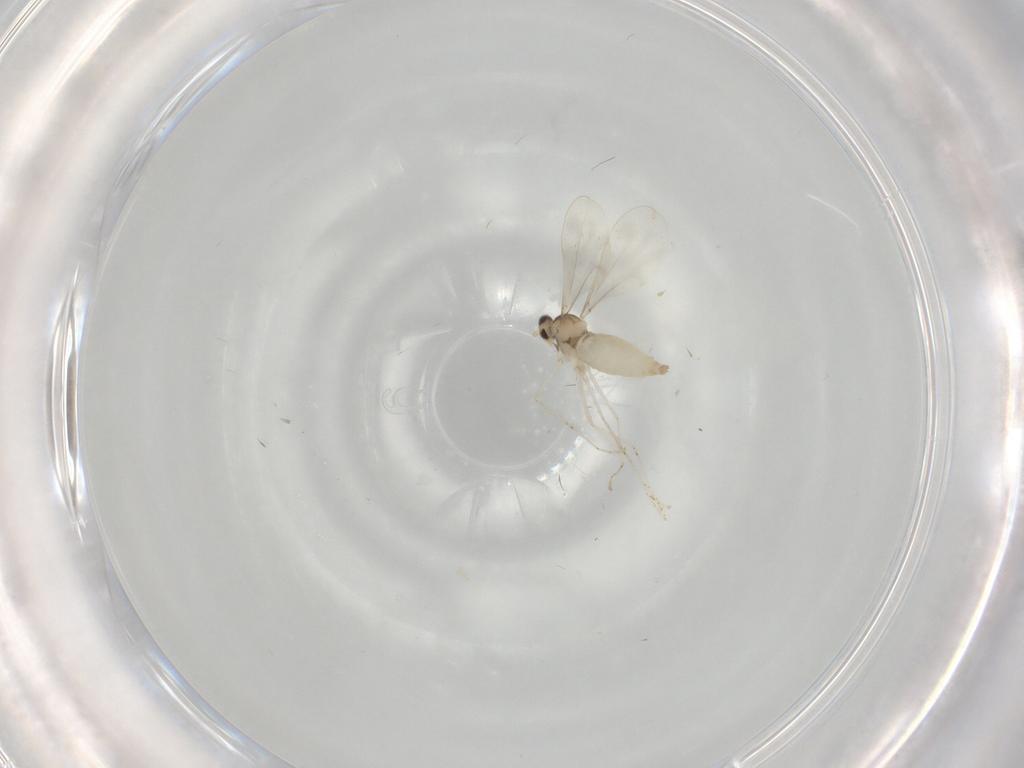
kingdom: Animalia
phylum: Arthropoda
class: Insecta
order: Diptera
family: Cecidomyiidae
